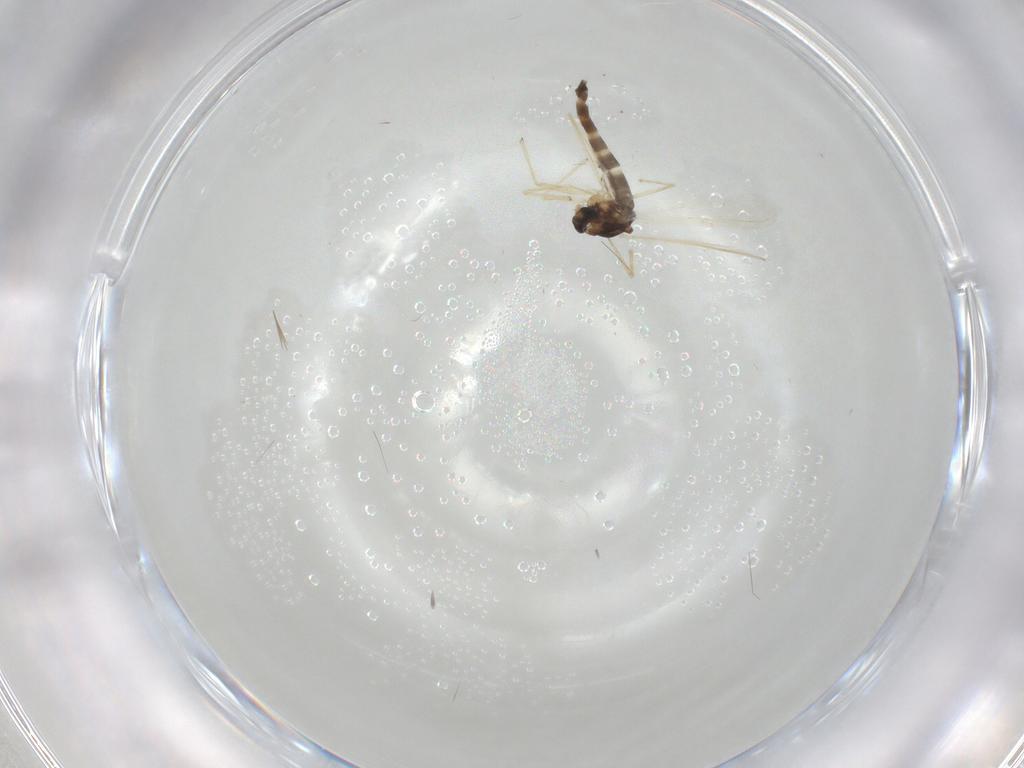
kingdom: Animalia
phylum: Arthropoda
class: Insecta
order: Diptera
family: Chironomidae
